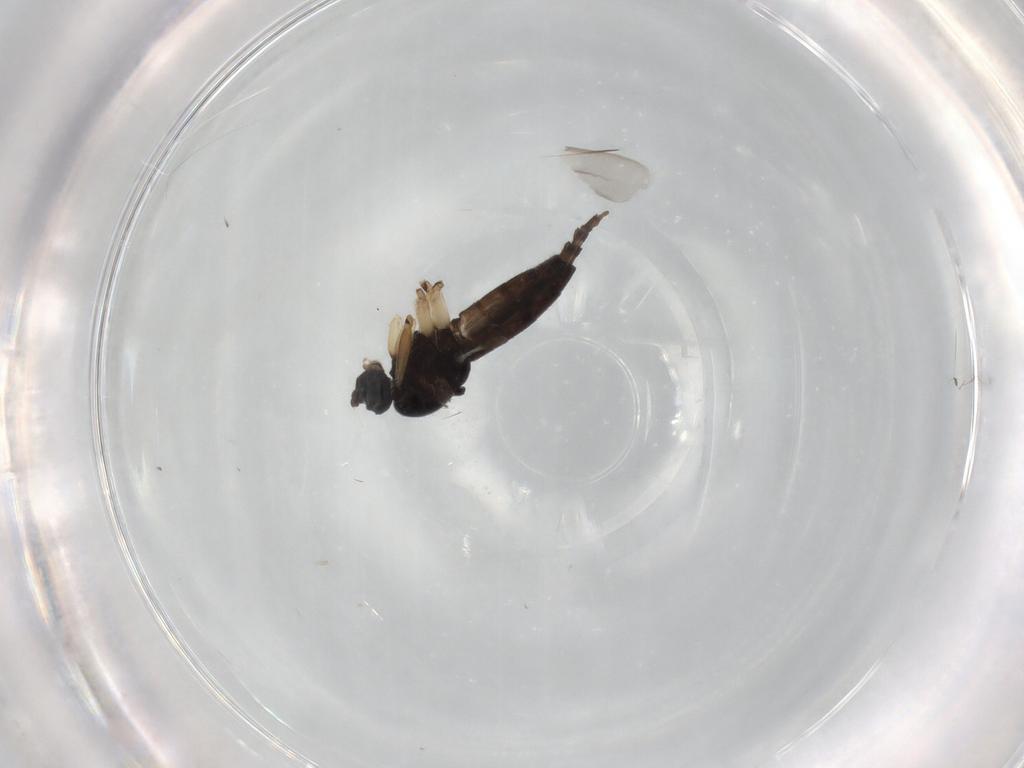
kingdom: Animalia
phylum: Arthropoda
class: Insecta
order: Diptera
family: Sciaridae
